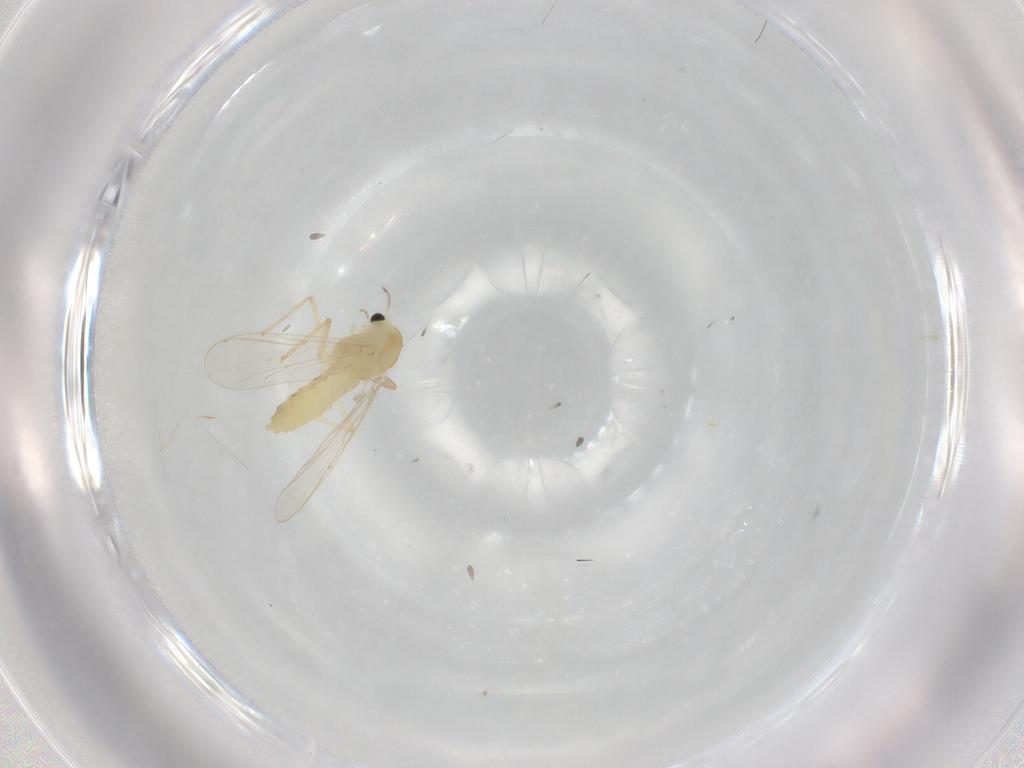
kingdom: Animalia
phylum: Arthropoda
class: Insecta
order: Diptera
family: Chironomidae
